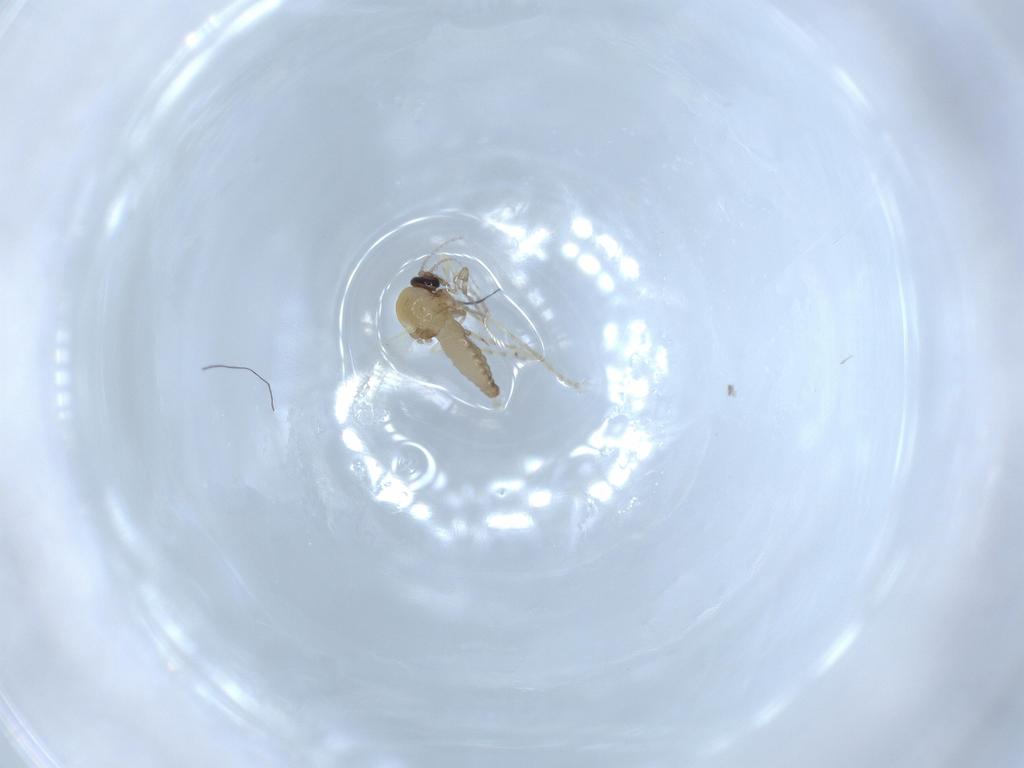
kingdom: Animalia
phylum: Arthropoda
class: Insecta
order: Diptera
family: Ceratopogonidae
